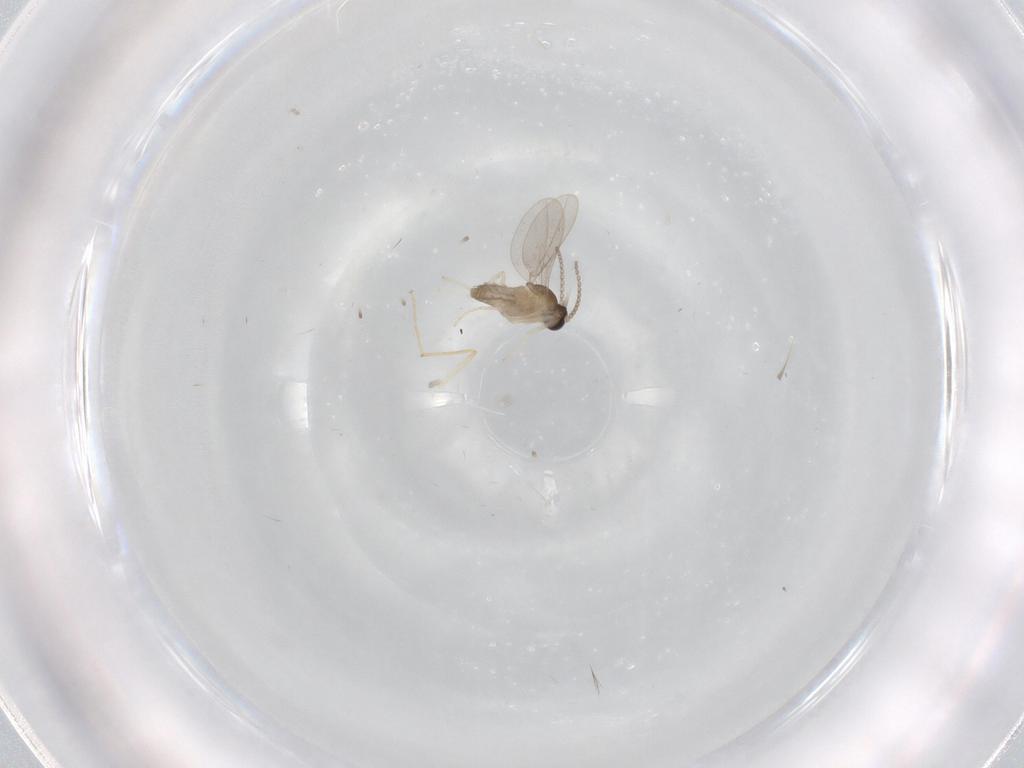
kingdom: Animalia
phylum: Arthropoda
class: Insecta
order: Diptera
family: Cecidomyiidae
